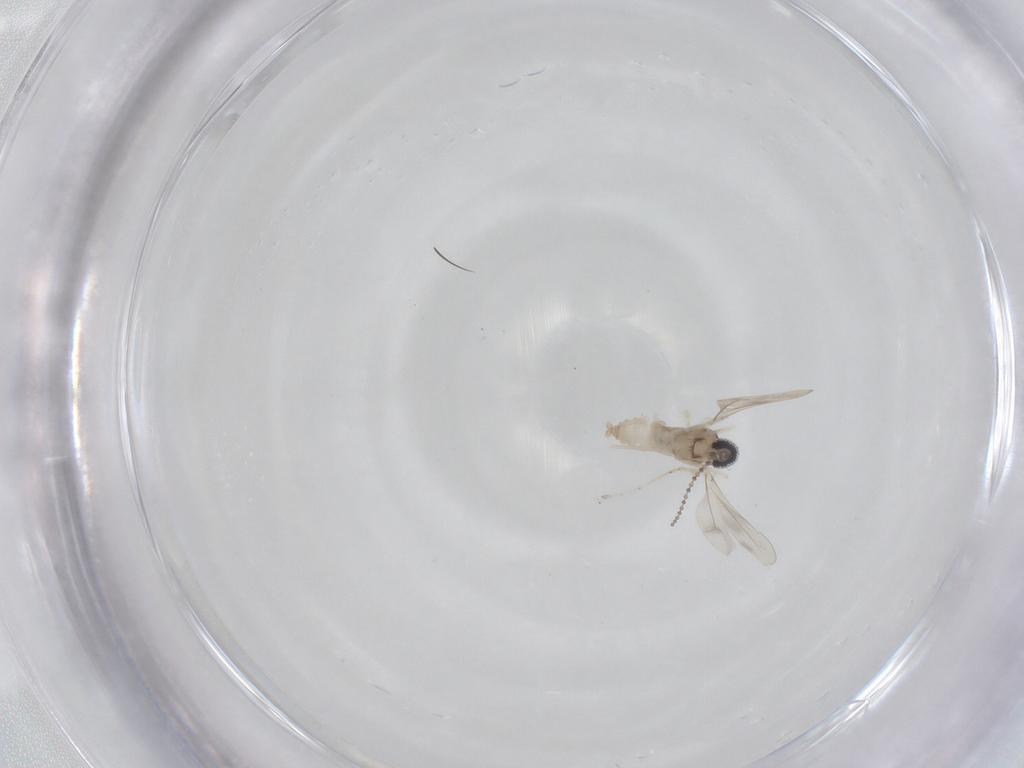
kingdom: Animalia
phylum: Arthropoda
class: Insecta
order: Diptera
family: Cecidomyiidae
